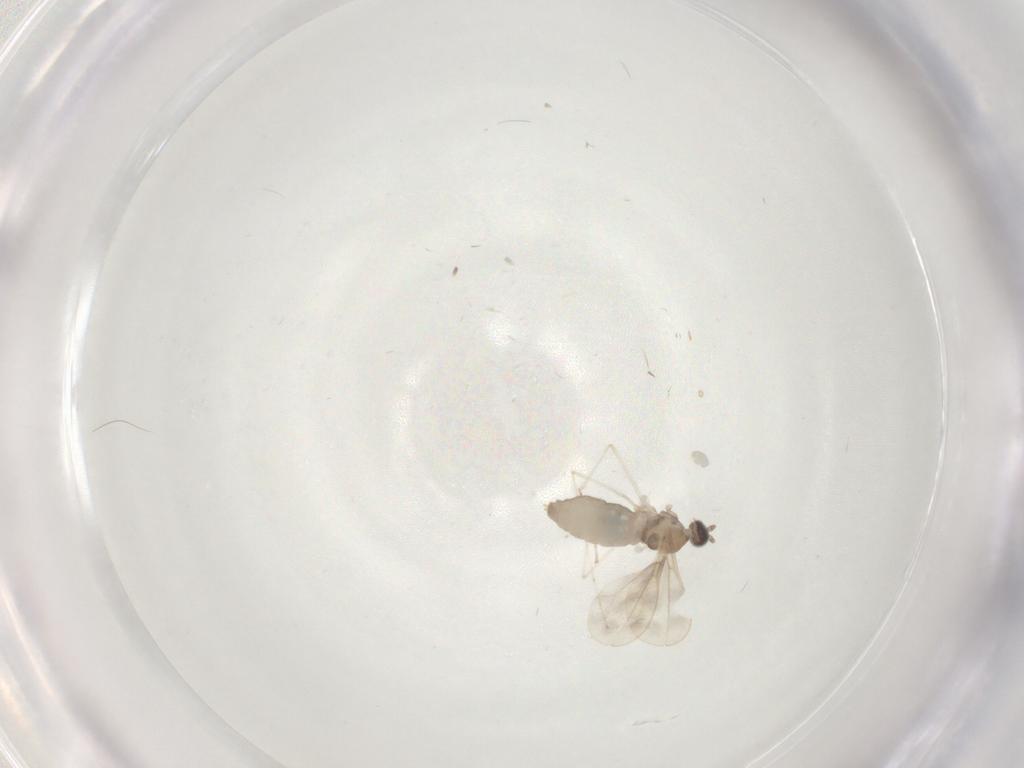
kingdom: Animalia
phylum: Arthropoda
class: Insecta
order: Diptera
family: Cecidomyiidae
